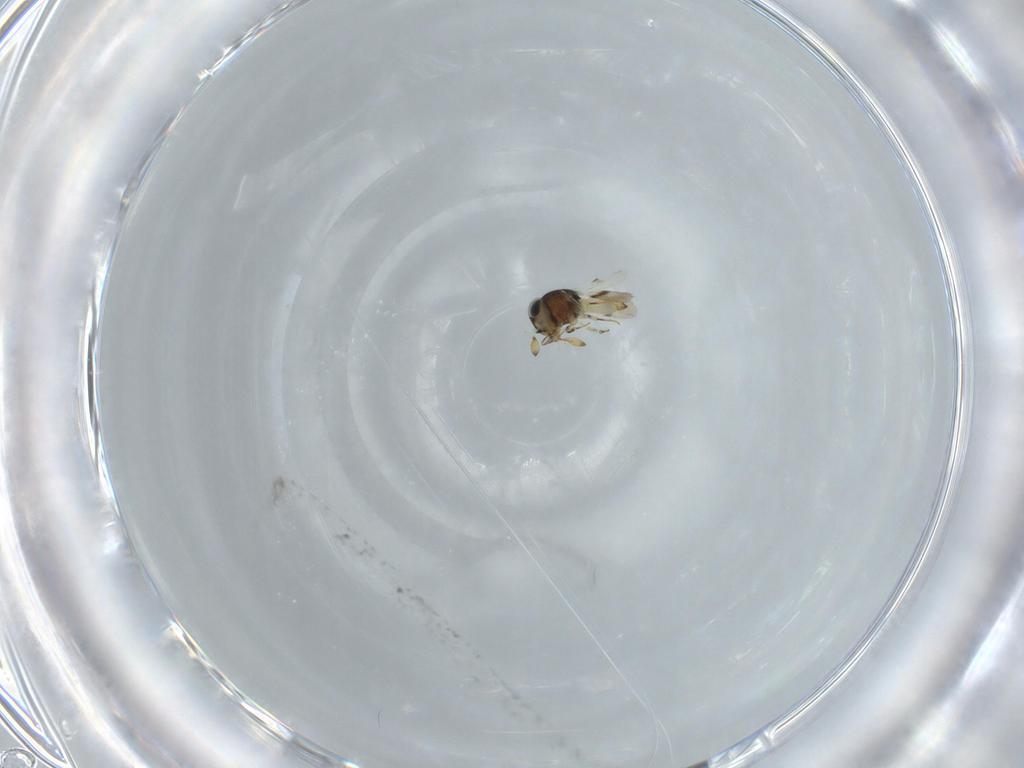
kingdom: Animalia
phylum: Arthropoda
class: Insecta
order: Hymenoptera
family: Scelionidae
